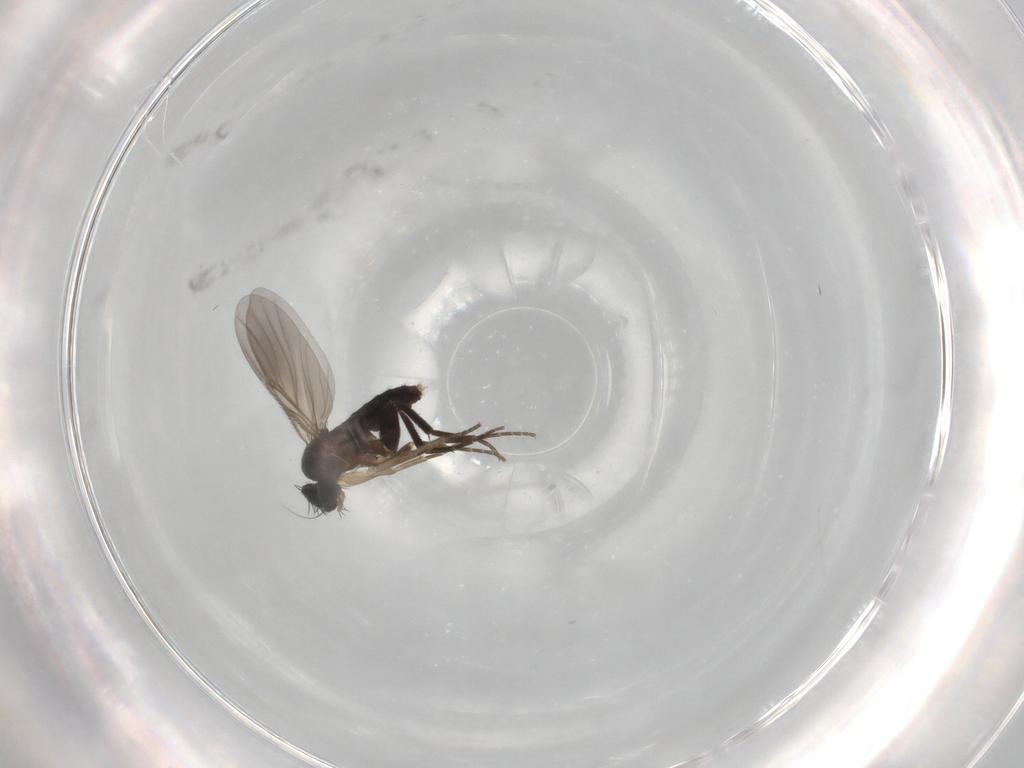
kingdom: Animalia
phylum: Arthropoda
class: Insecta
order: Diptera
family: Phoridae
